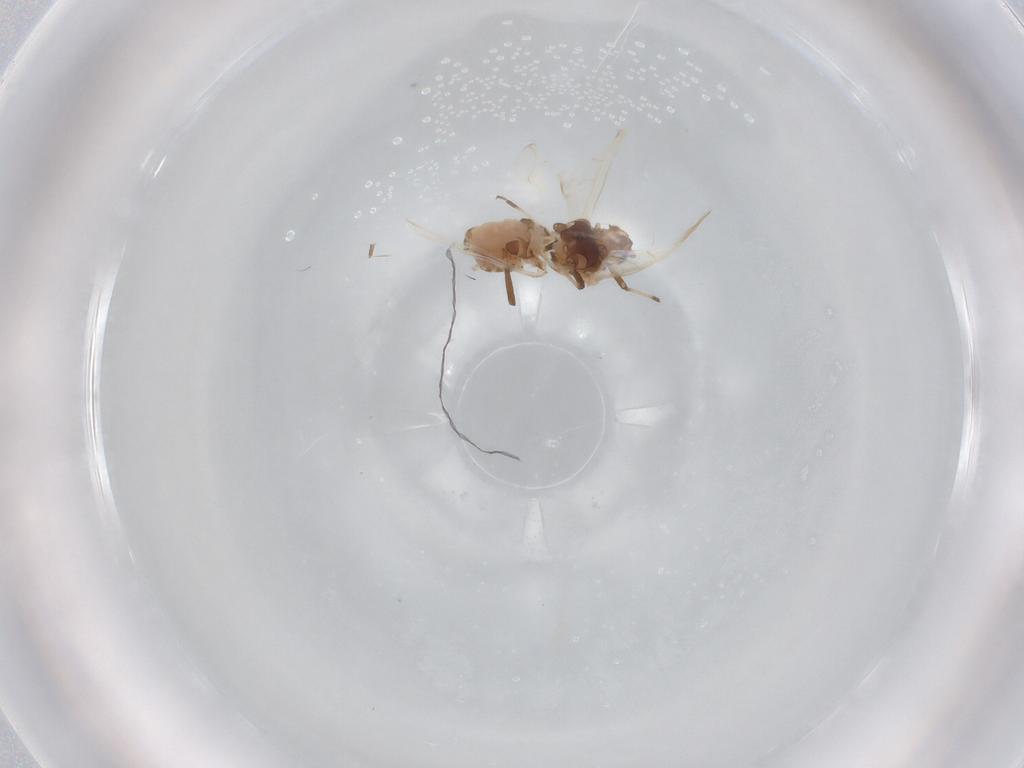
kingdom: Animalia
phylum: Arthropoda
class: Insecta
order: Hemiptera
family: Aphididae
